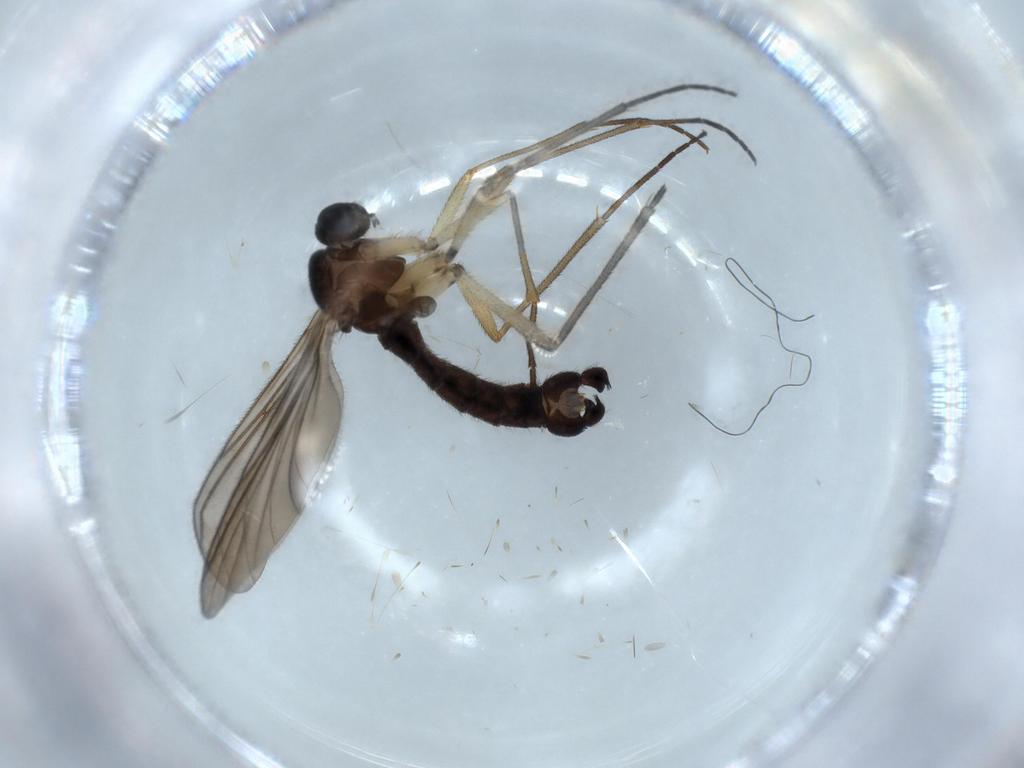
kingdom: Animalia
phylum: Arthropoda
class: Insecta
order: Diptera
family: Sciaridae
